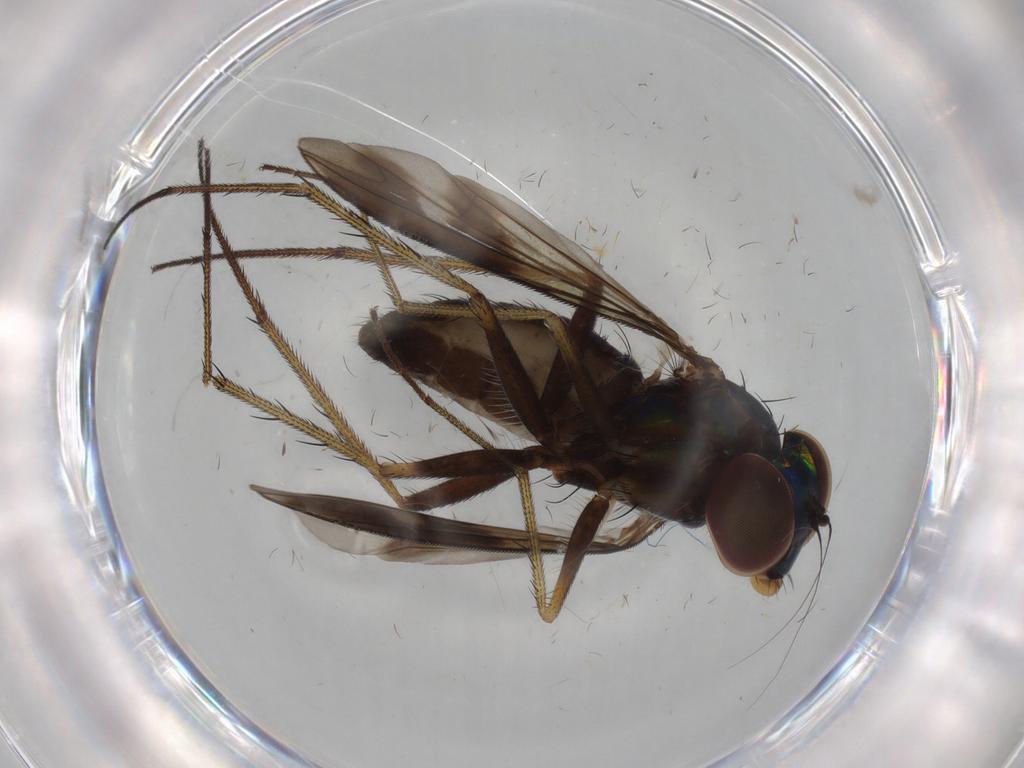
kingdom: Animalia
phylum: Arthropoda
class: Insecta
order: Diptera
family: Dolichopodidae
